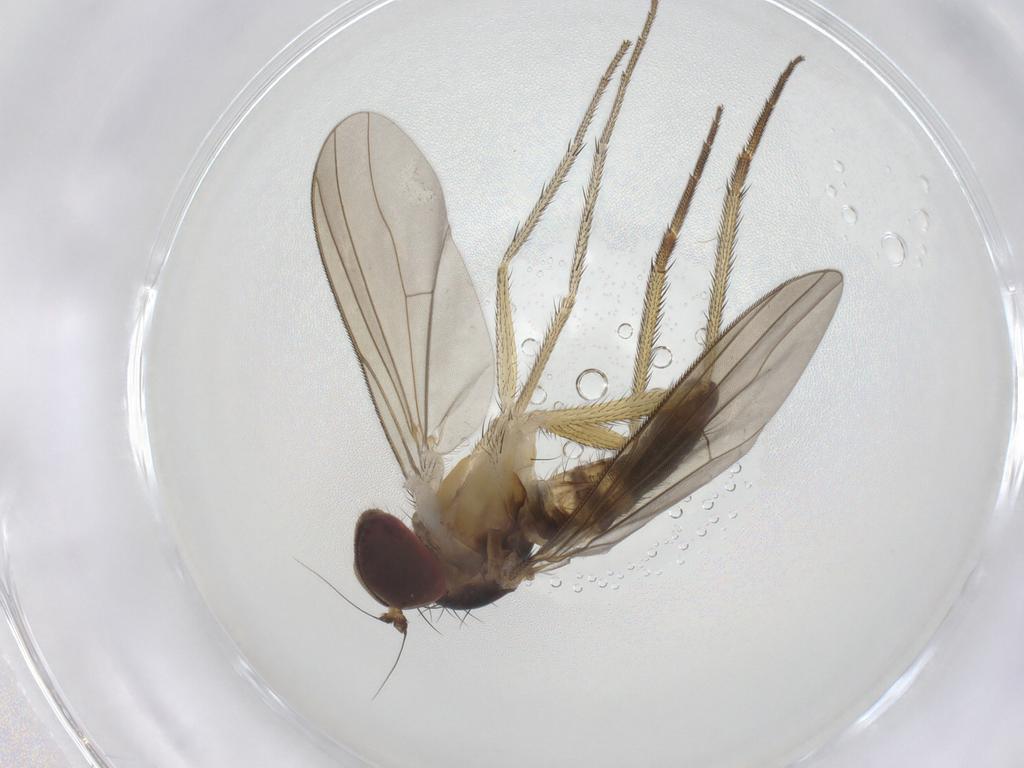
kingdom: Animalia
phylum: Arthropoda
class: Insecta
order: Diptera
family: Dolichopodidae
